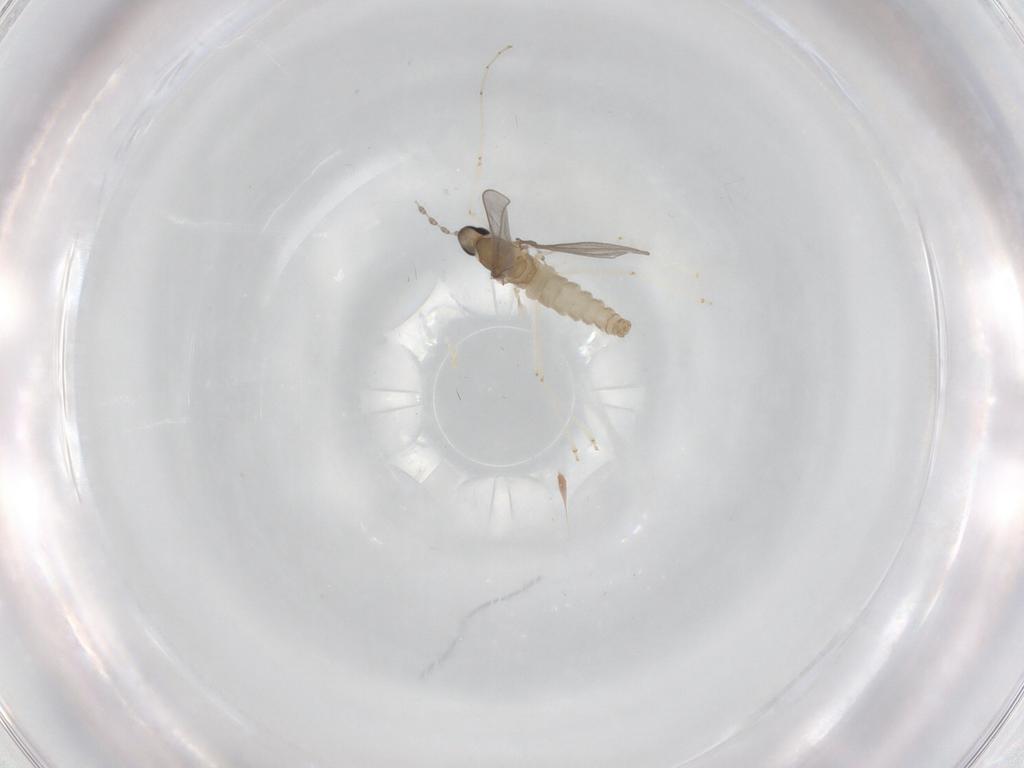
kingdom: Animalia
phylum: Arthropoda
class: Insecta
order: Diptera
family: Cecidomyiidae
